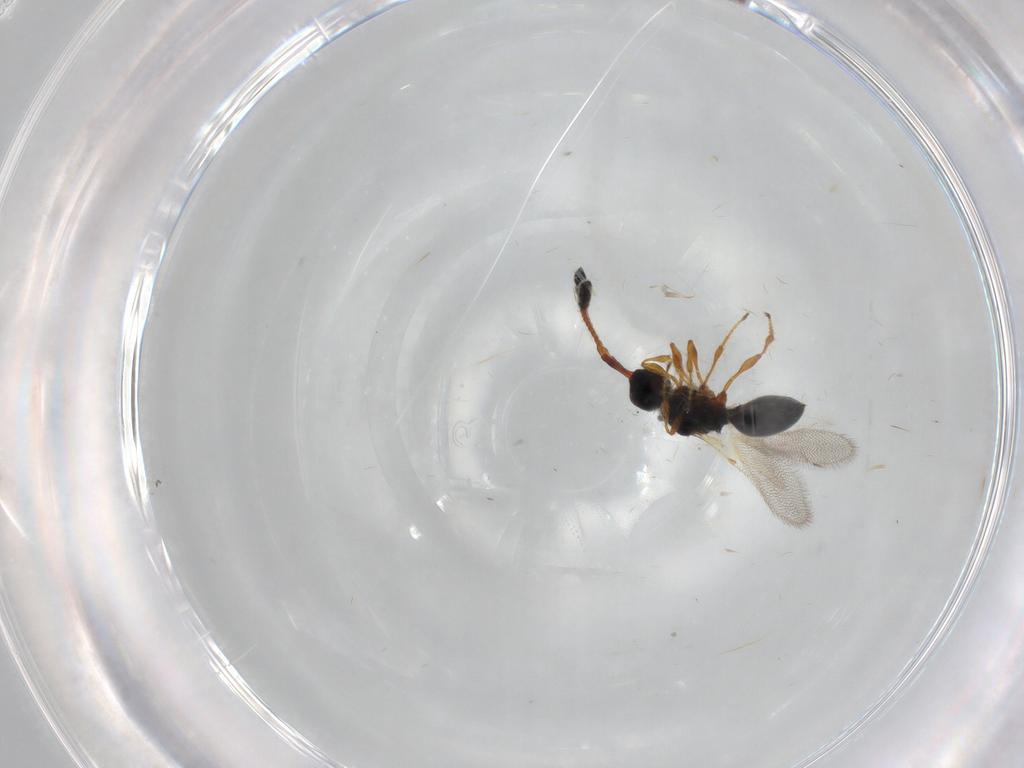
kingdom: Animalia
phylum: Arthropoda
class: Insecta
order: Hymenoptera
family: Diapriidae
